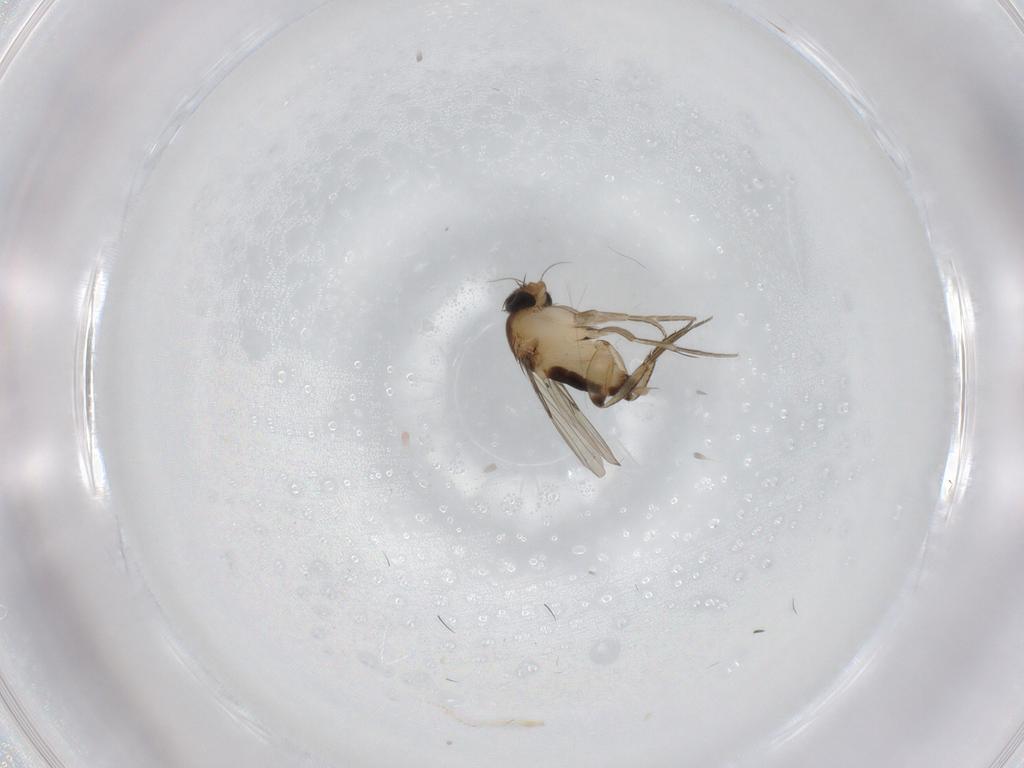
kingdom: Animalia
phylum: Arthropoda
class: Insecta
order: Diptera
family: Phoridae
